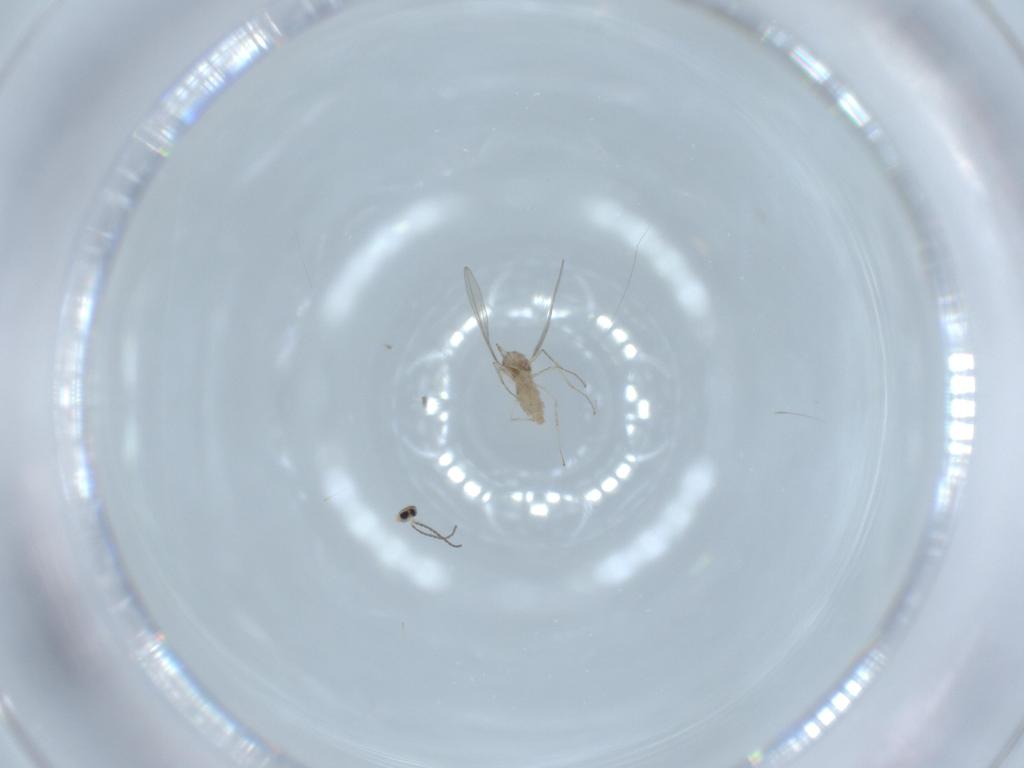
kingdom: Animalia
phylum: Arthropoda
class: Insecta
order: Diptera
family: Cecidomyiidae
